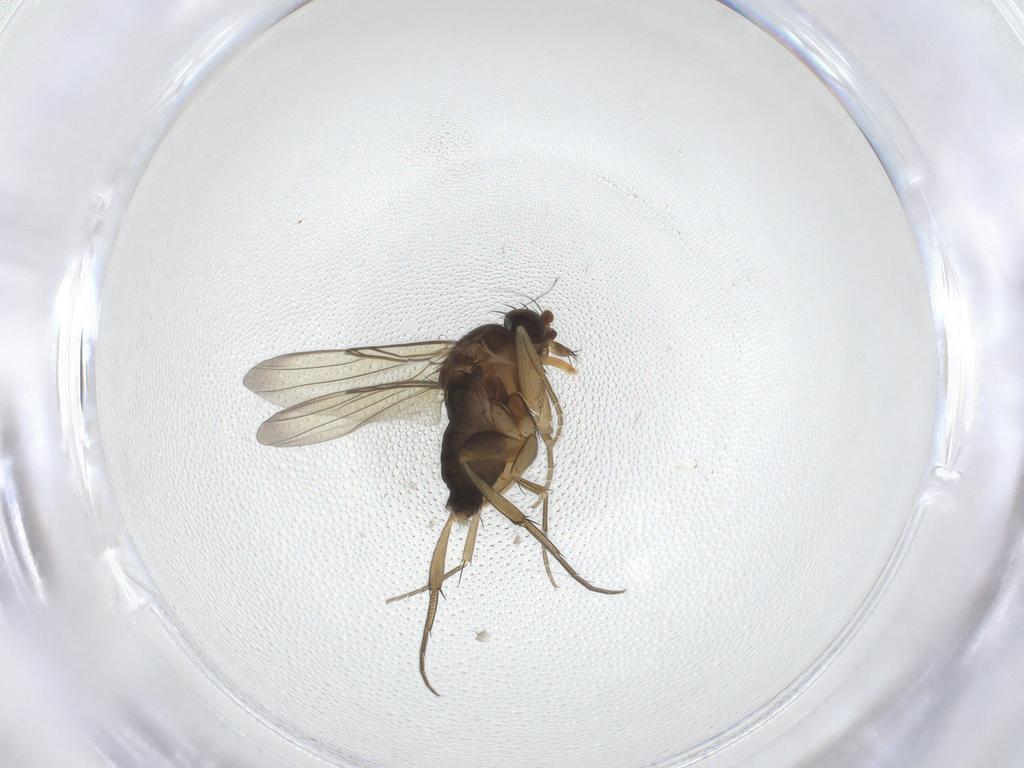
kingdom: Animalia
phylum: Arthropoda
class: Insecta
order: Diptera
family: Phoridae
